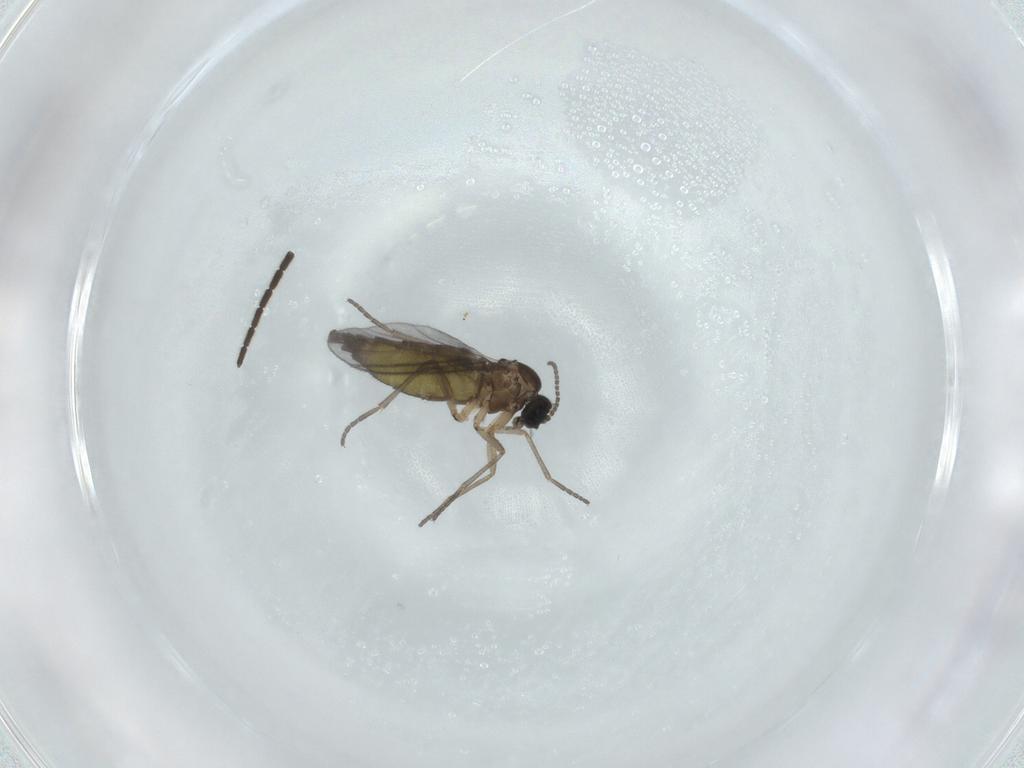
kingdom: Animalia
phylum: Arthropoda
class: Insecta
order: Diptera
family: Sciaridae
